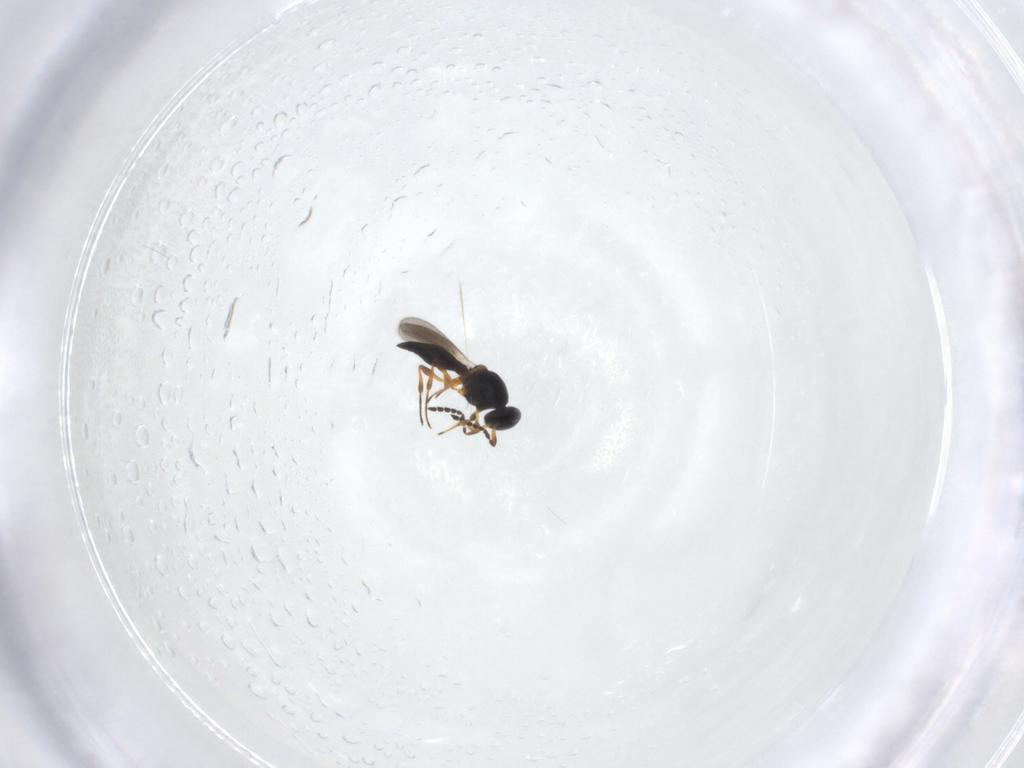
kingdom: Animalia
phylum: Arthropoda
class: Insecta
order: Hymenoptera
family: Platygastridae
